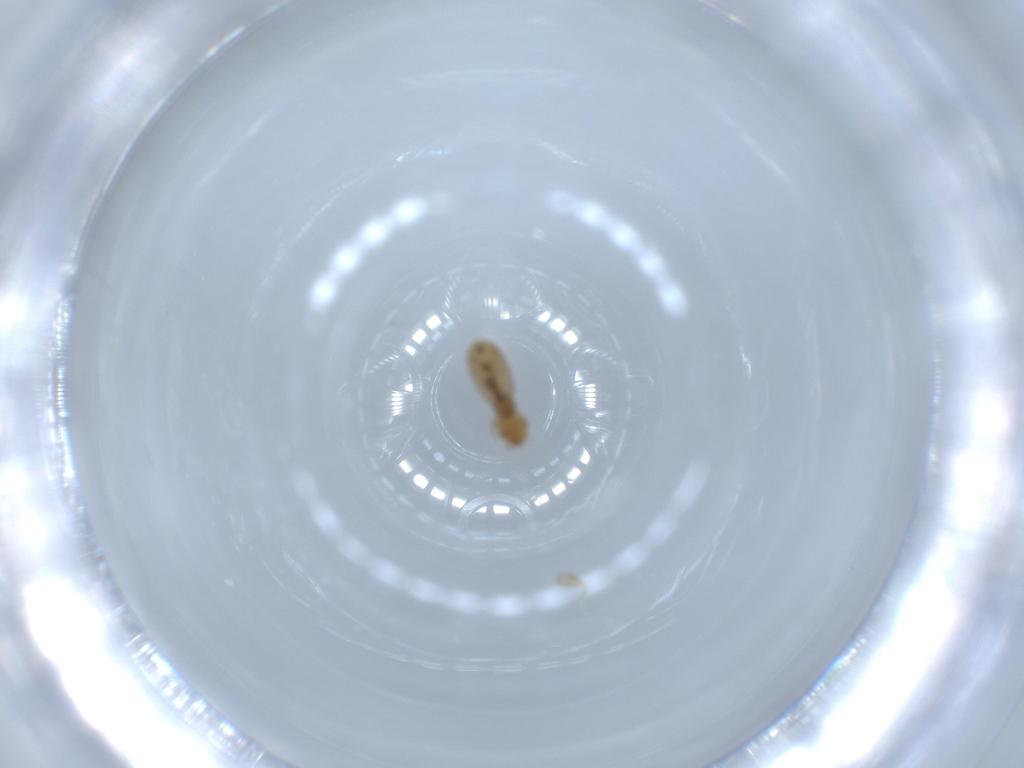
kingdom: Animalia
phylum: Arthropoda
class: Insecta
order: Psocodea
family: Liposcelididae
